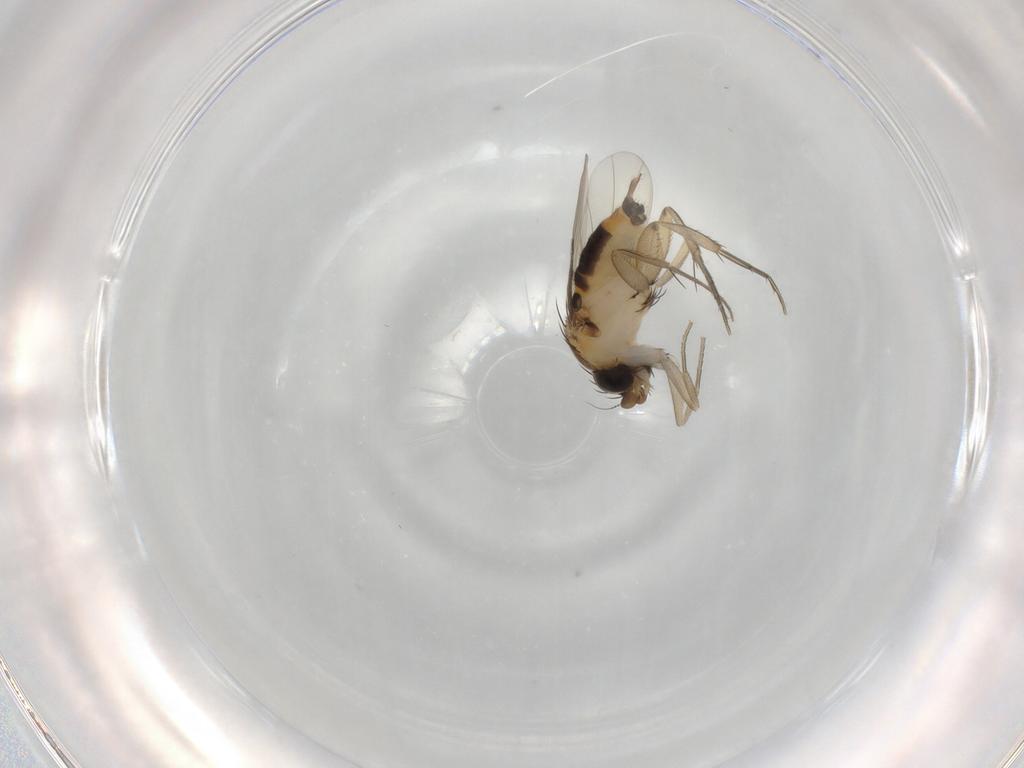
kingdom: Animalia
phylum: Arthropoda
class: Insecta
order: Diptera
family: Phoridae
